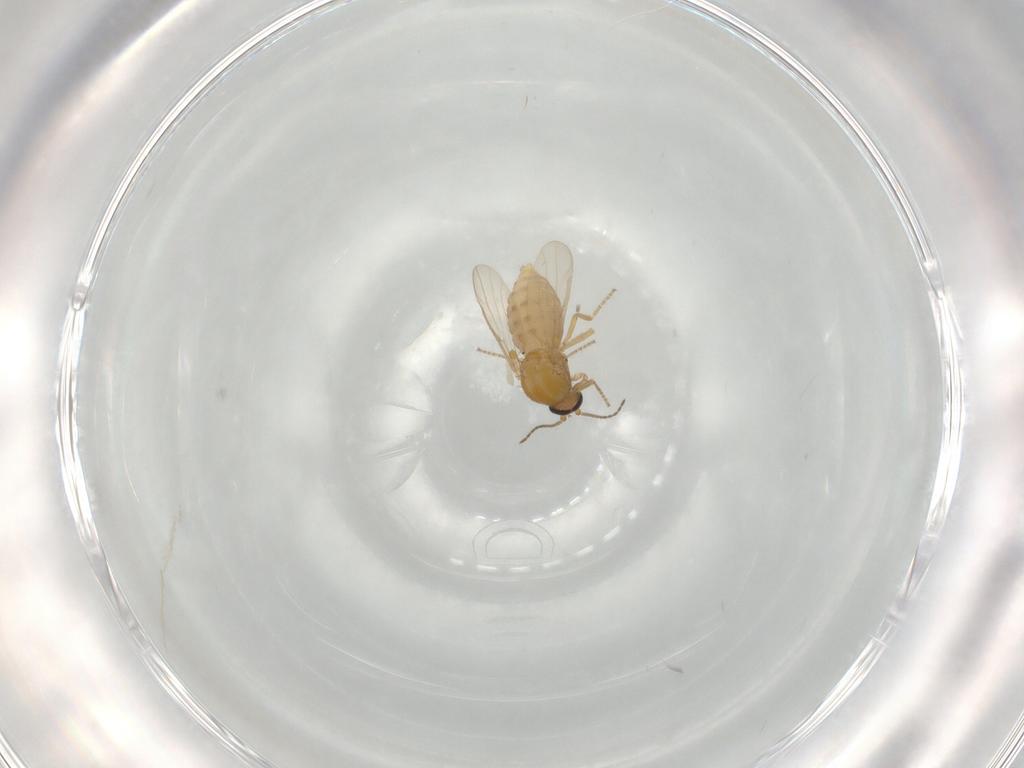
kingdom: Animalia
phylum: Arthropoda
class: Insecta
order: Diptera
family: Ceratopogonidae
